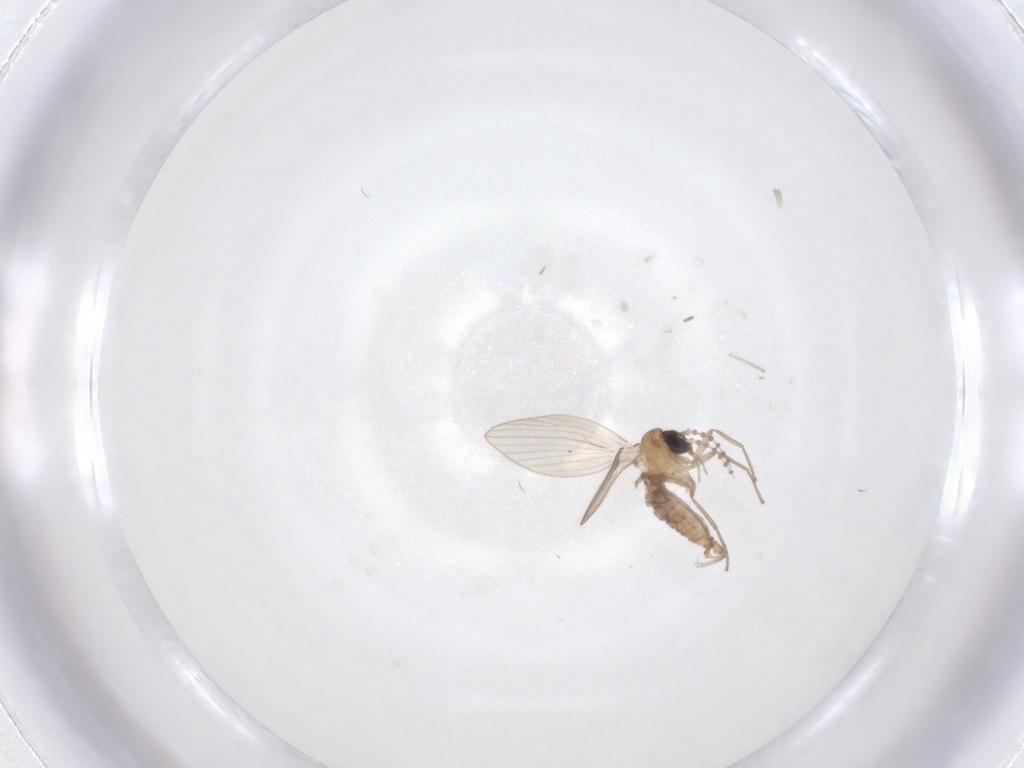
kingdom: Animalia
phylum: Arthropoda
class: Insecta
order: Diptera
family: Psychodidae
